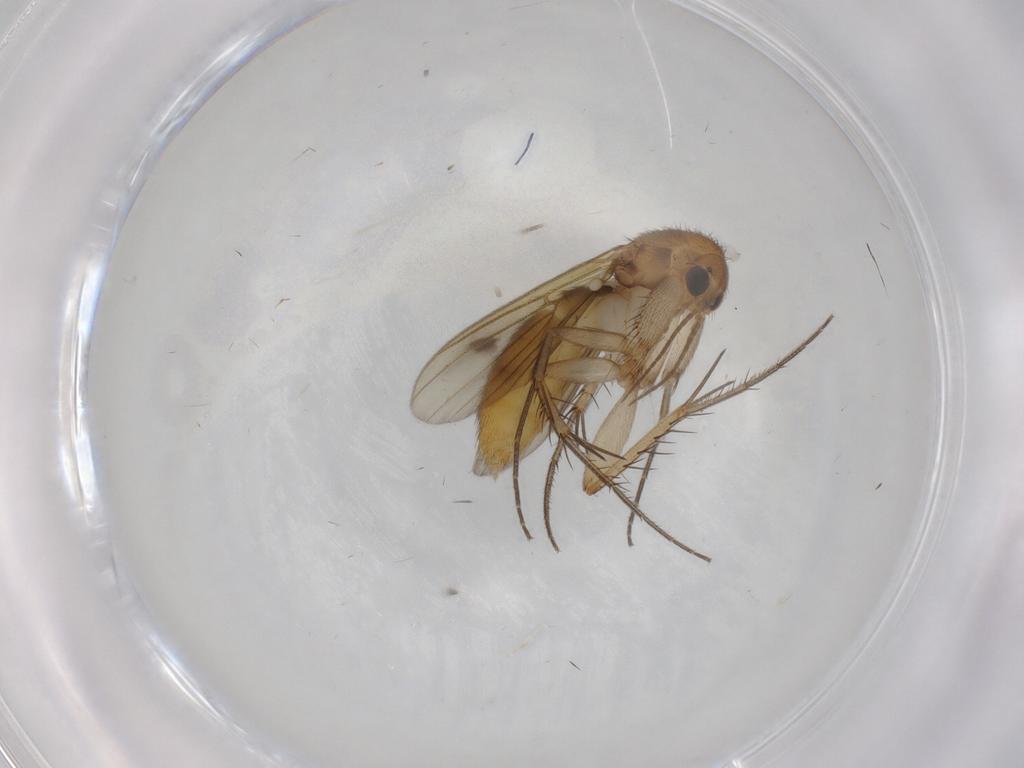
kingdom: Animalia
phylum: Arthropoda
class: Insecta
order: Diptera
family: Mycetophilidae
